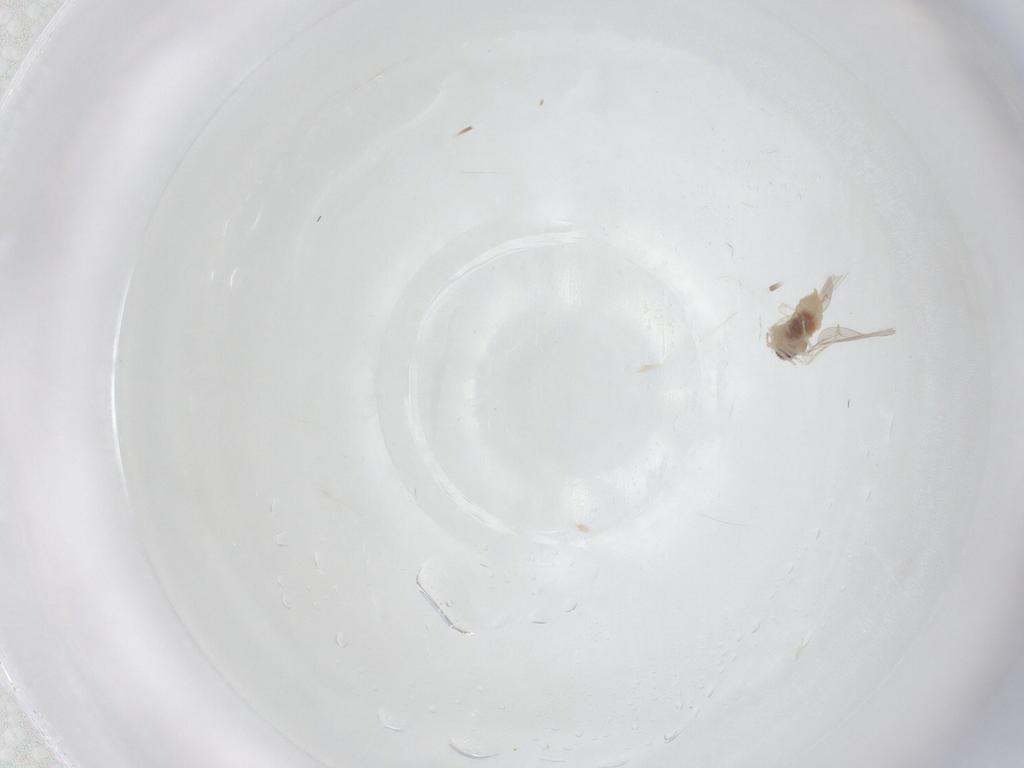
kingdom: Animalia
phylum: Arthropoda
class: Insecta
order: Diptera
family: Cecidomyiidae
